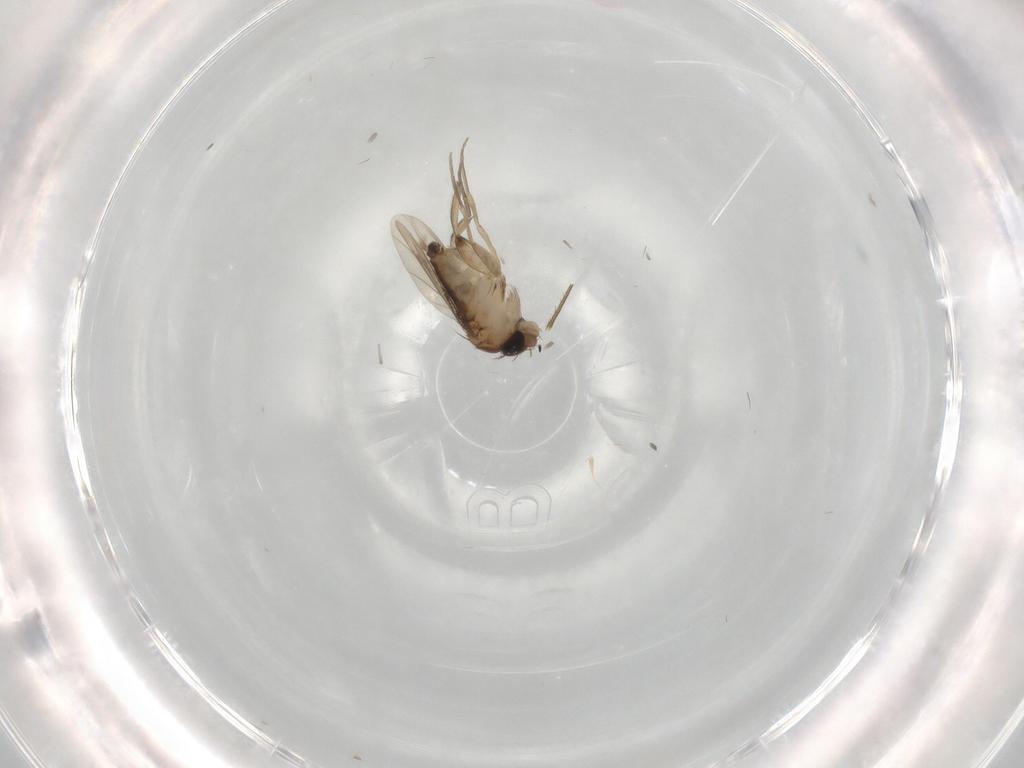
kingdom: Animalia
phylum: Arthropoda
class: Insecta
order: Diptera
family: Phoridae
